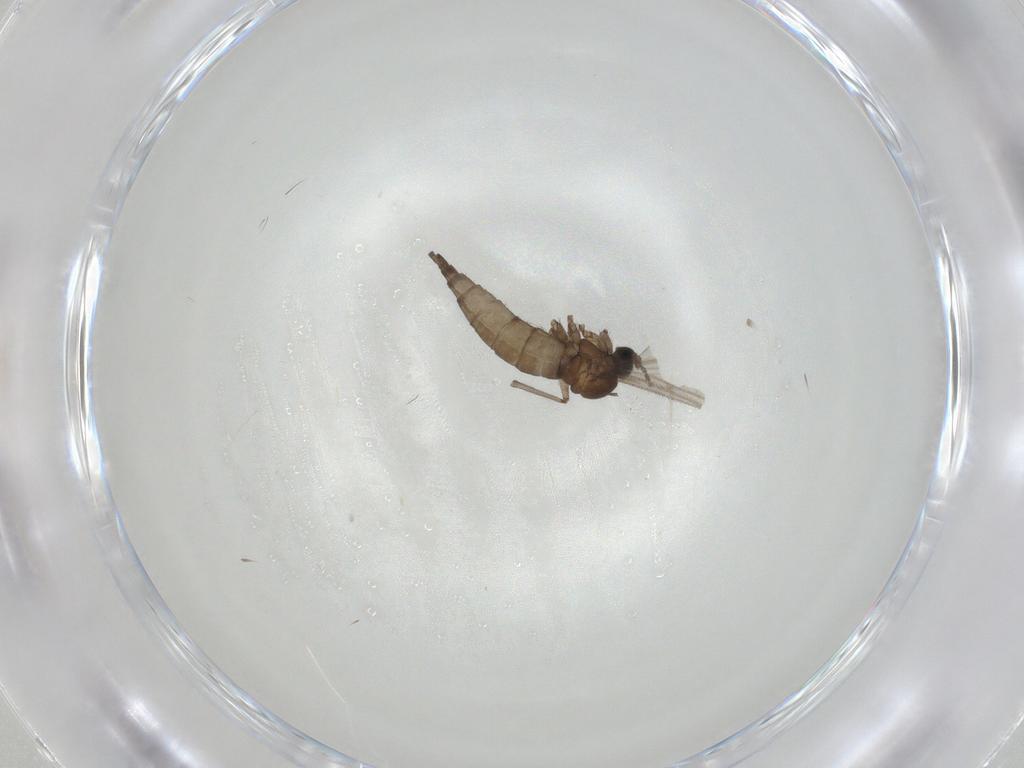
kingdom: Animalia
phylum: Arthropoda
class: Insecta
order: Diptera
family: Sciaridae
